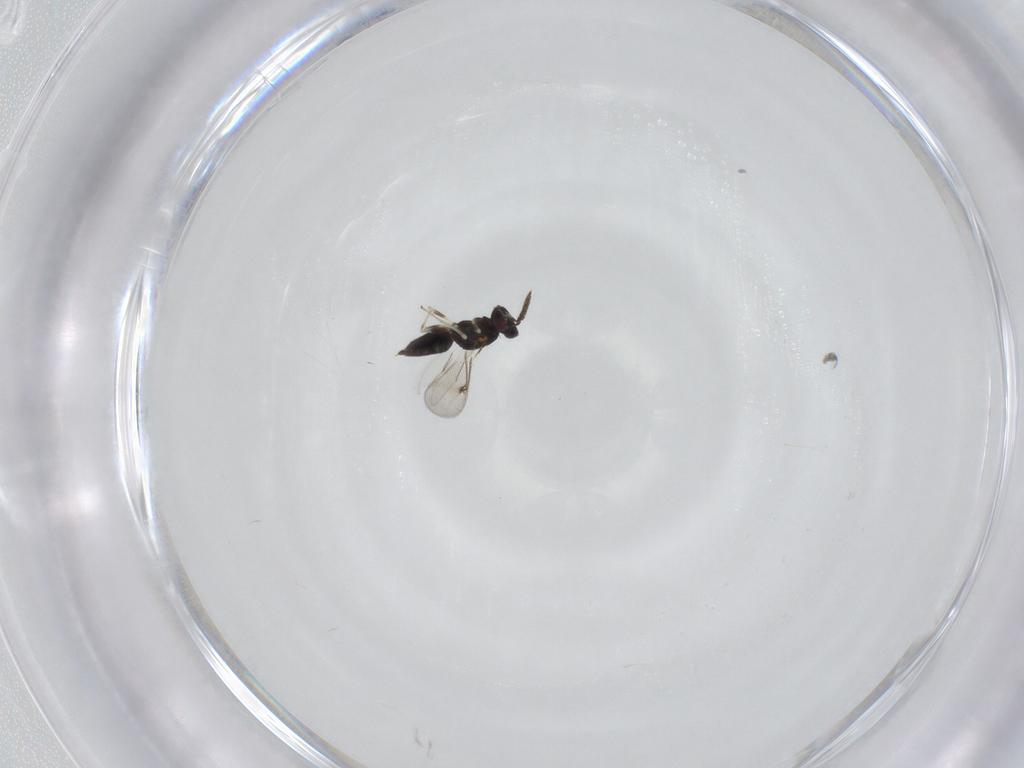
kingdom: Animalia
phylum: Arthropoda
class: Insecta
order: Hymenoptera
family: Eulophidae
